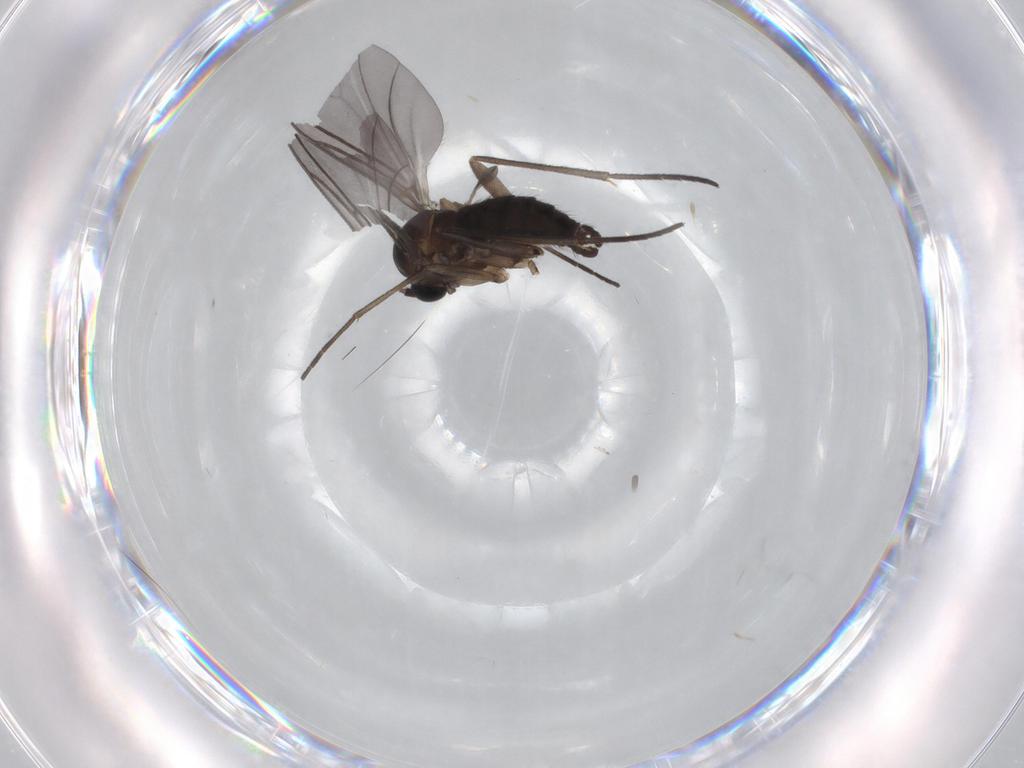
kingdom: Animalia
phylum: Arthropoda
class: Insecta
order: Diptera
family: Sciaridae
